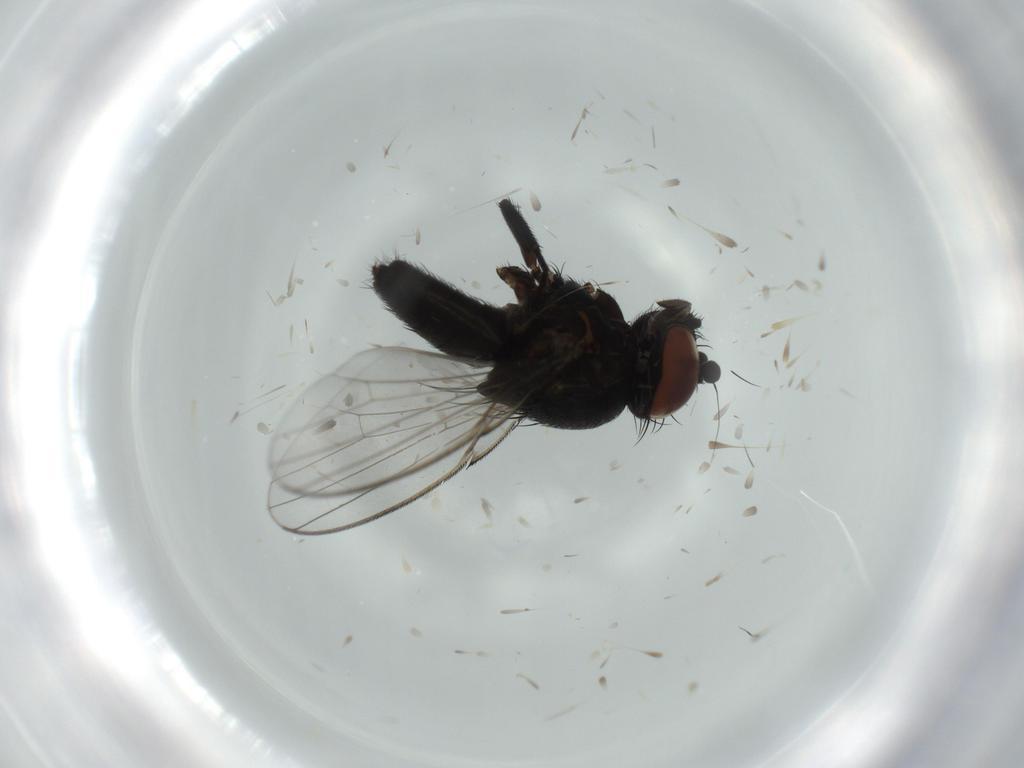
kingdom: Animalia
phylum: Arthropoda
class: Insecta
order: Diptera
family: Milichiidae
